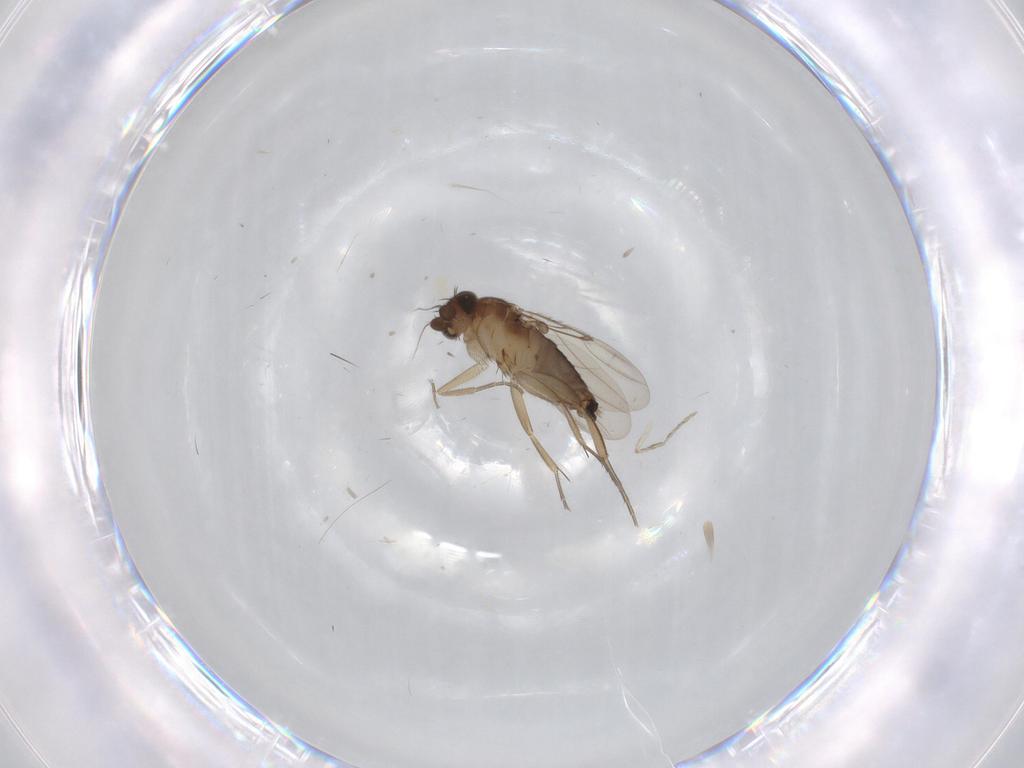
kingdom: Animalia
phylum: Arthropoda
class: Insecta
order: Diptera
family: Phoridae
